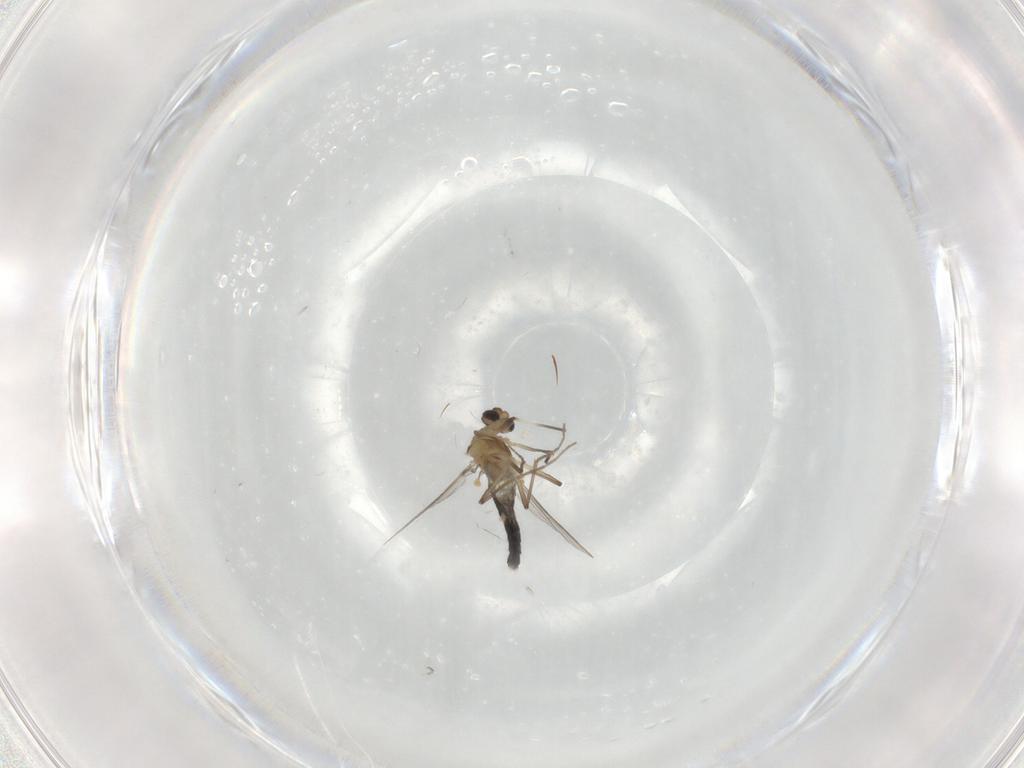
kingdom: Animalia
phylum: Arthropoda
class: Insecta
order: Diptera
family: Chironomidae
